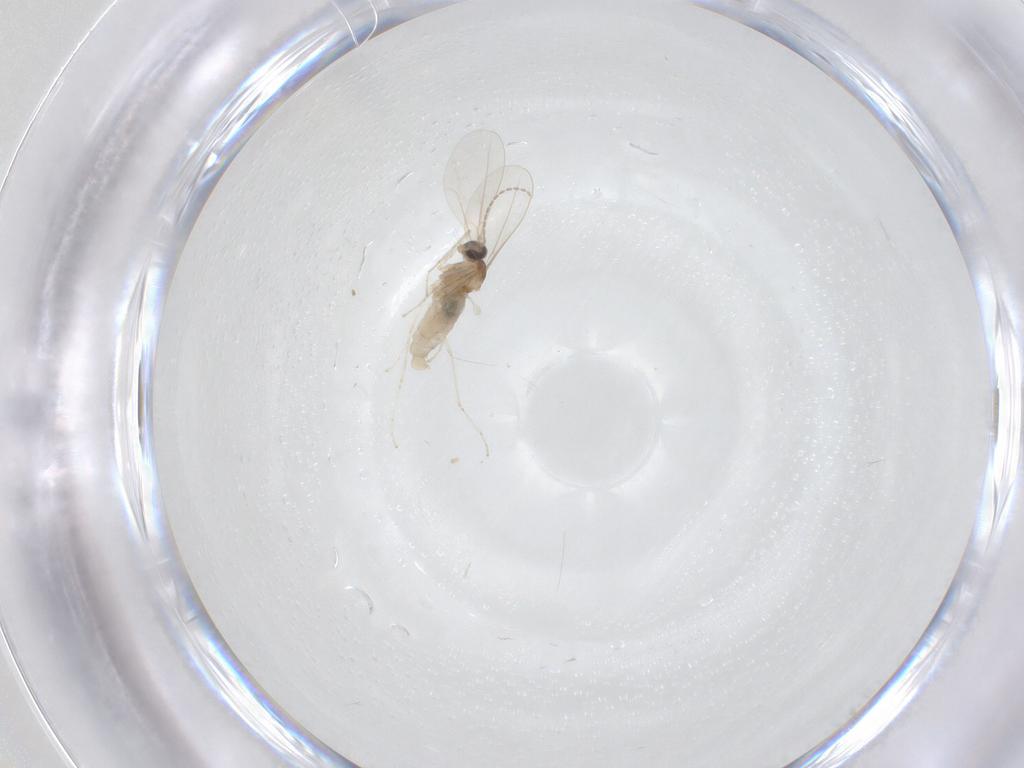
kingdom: Animalia
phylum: Arthropoda
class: Insecta
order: Diptera
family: Cecidomyiidae
